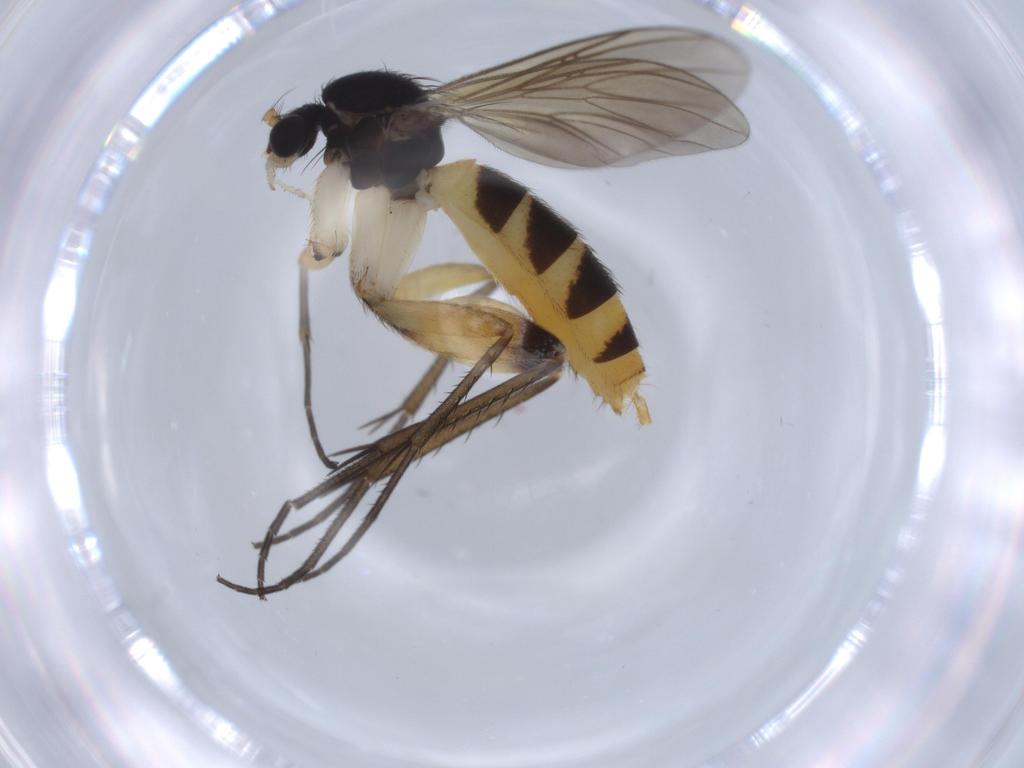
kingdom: Animalia
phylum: Arthropoda
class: Insecta
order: Diptera
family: Mycetophilidae
